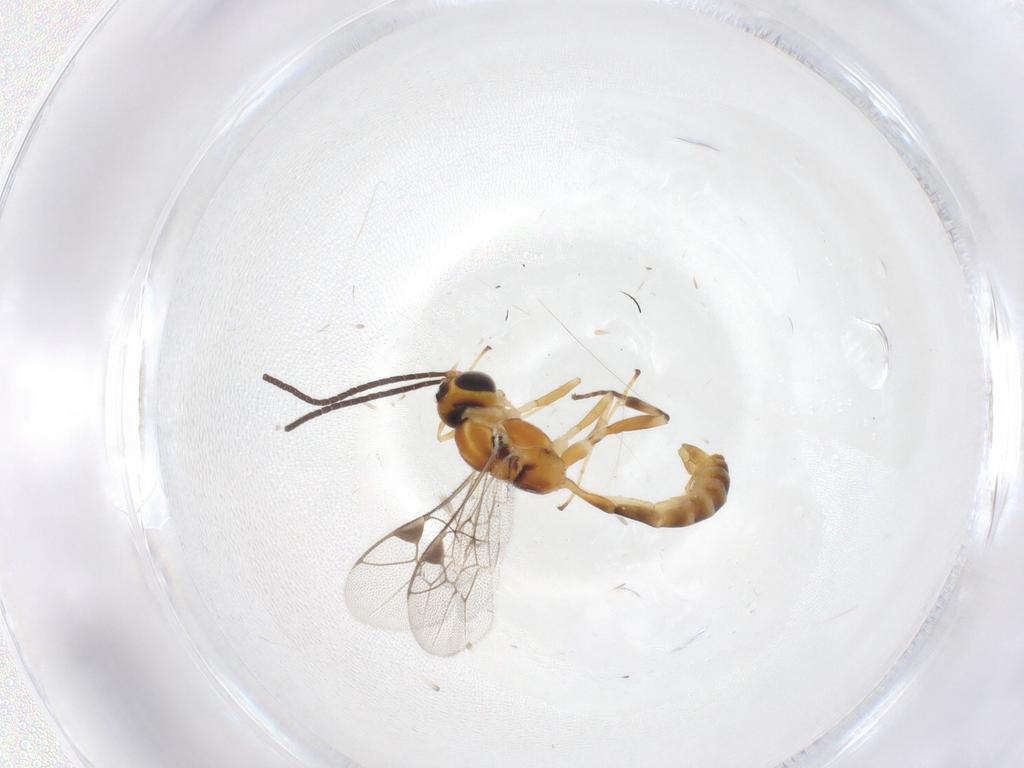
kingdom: Animalia
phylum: Arthropoda
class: Insecta
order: Hymenoptera
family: Ichneumonidae
